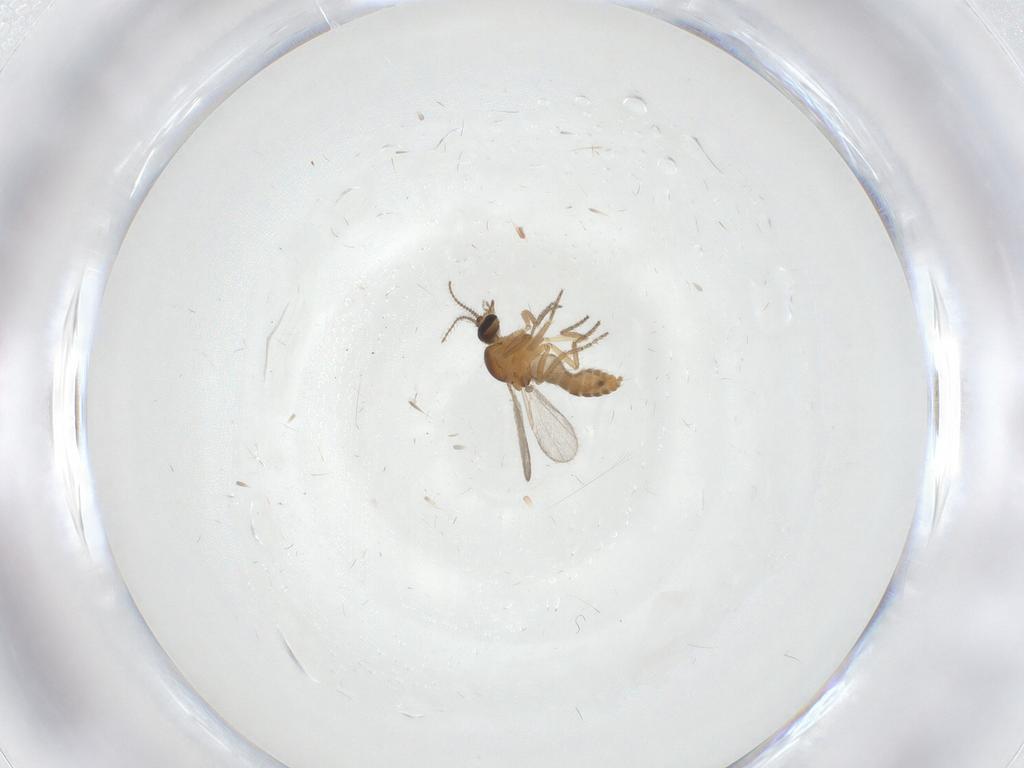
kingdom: Animalia
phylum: Arthropoda
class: Insecta
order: Diptera
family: Ceratopogonidae
